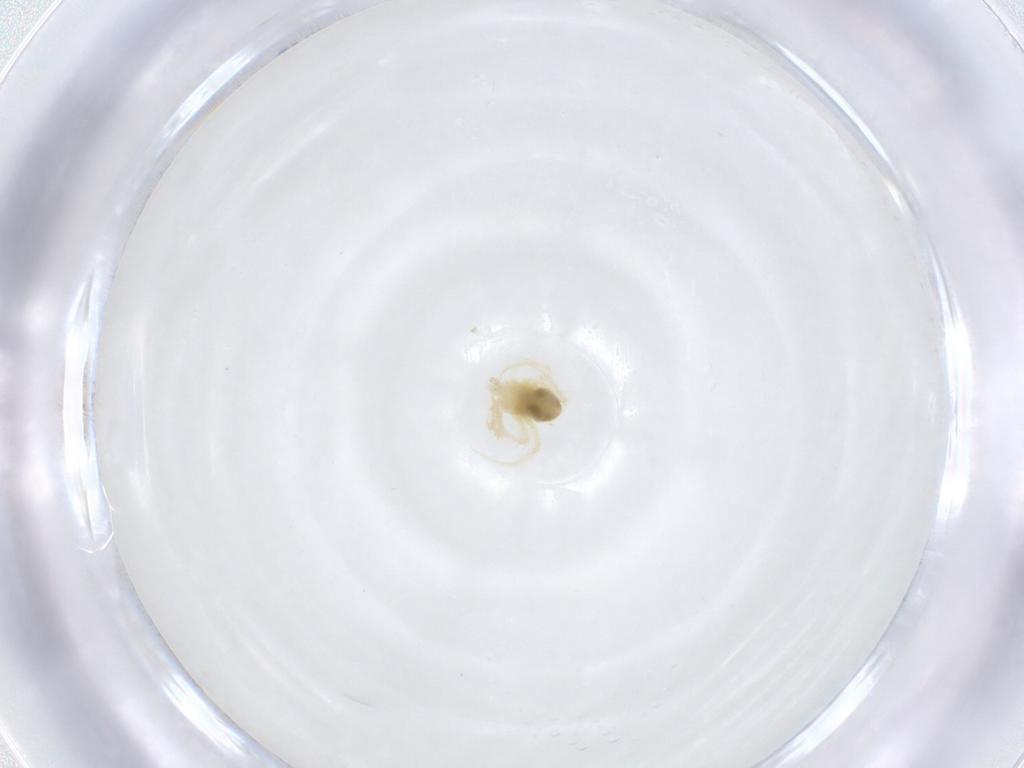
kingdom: Animalia
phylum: Arthropoda
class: Arachnida
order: Trombidiformes
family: Anystidae
